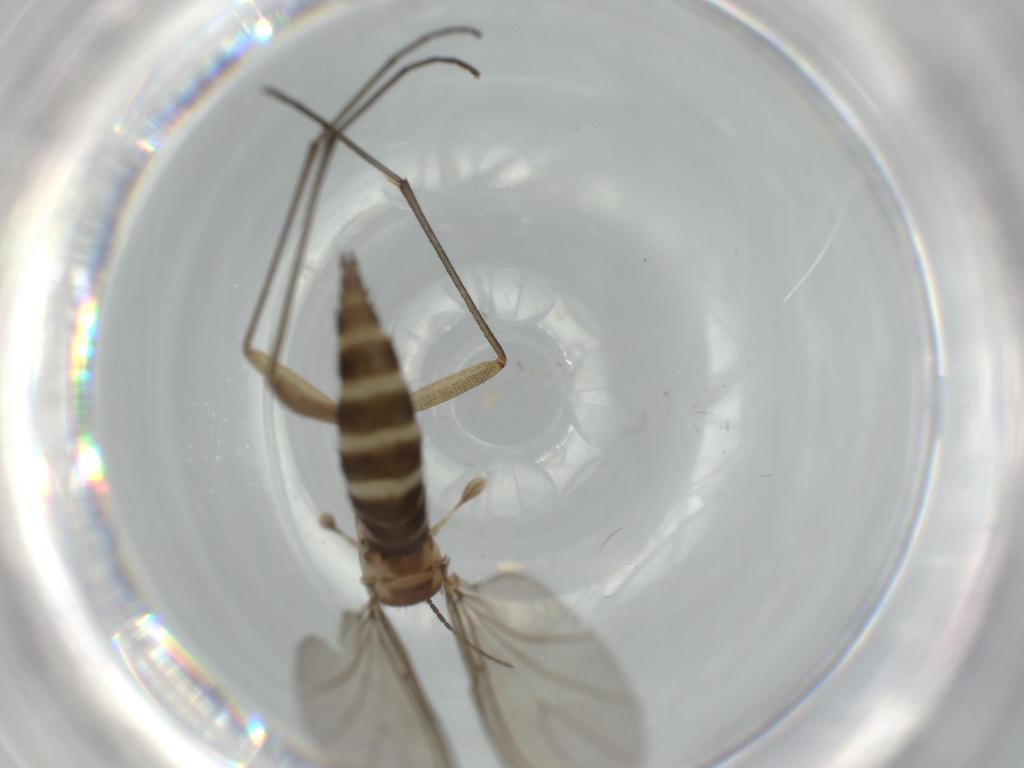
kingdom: Animalia
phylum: Arthropoda
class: Insecta
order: Diptera
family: Sciaridae
